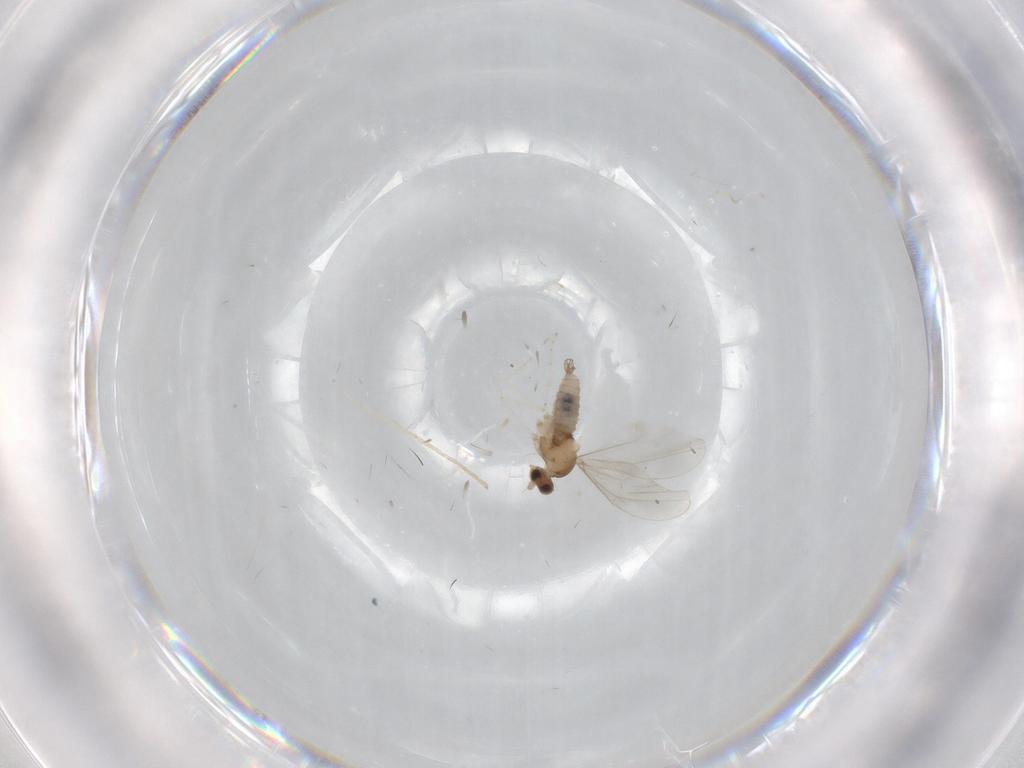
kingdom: Animalia
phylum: Arthropoda
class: Insecta
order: Diptera
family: Cecidomyiidae
